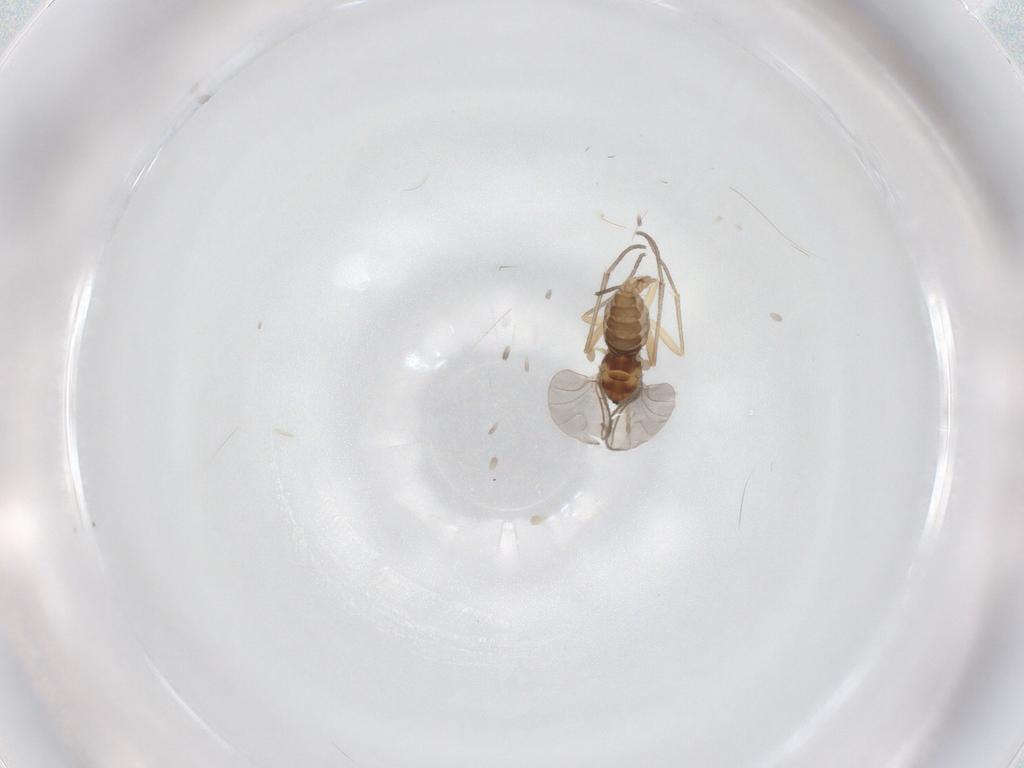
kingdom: Animalia
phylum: Arthropoda
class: Insecta
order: Diptera
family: Sciaridae
